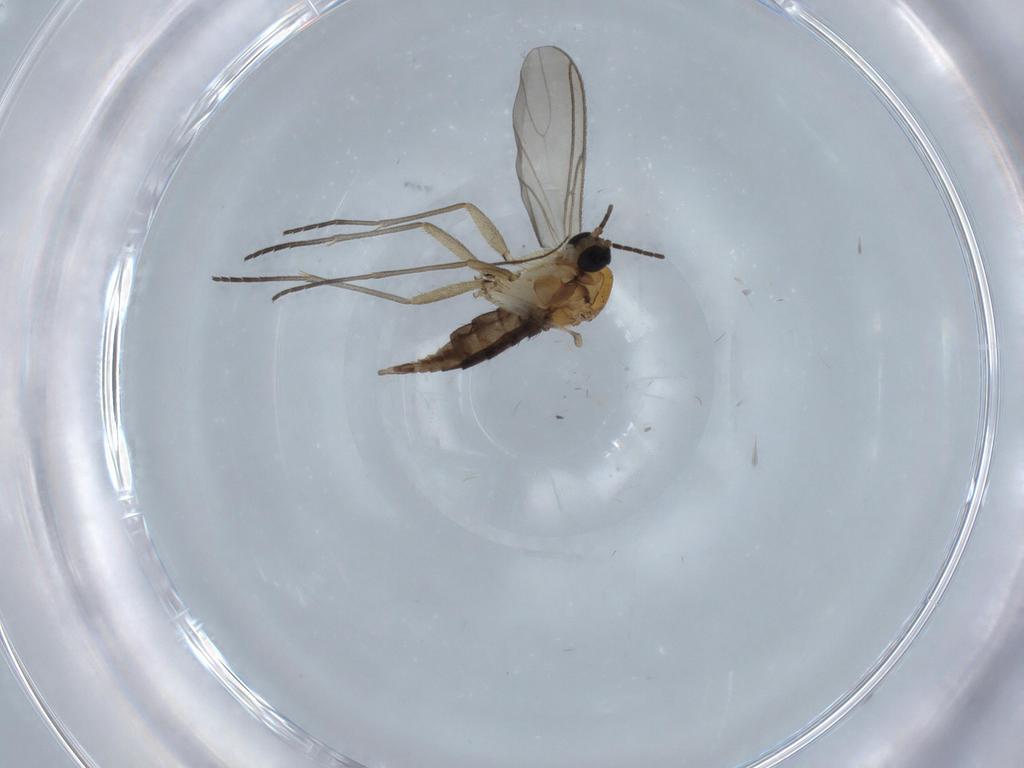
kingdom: Animalia
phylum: Arthropoda
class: Insecta
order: Diptera
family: Sciaridae
